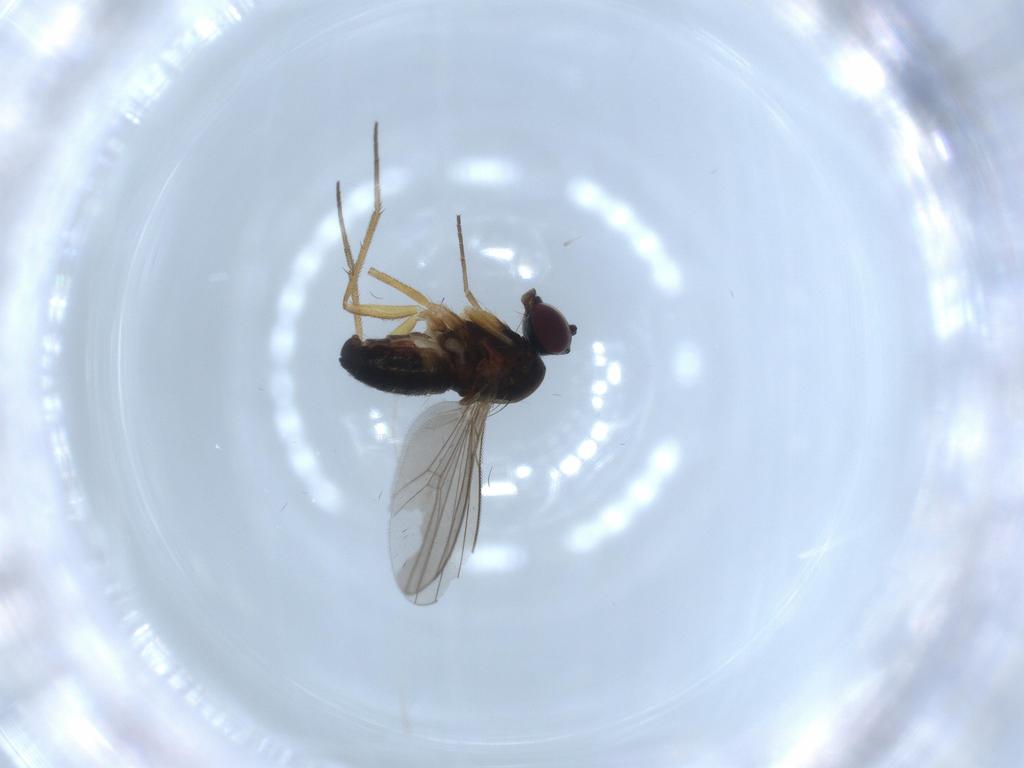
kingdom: Animalia
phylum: Arthropoda
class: Insecta
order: Diptera
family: Dolichopodidae
